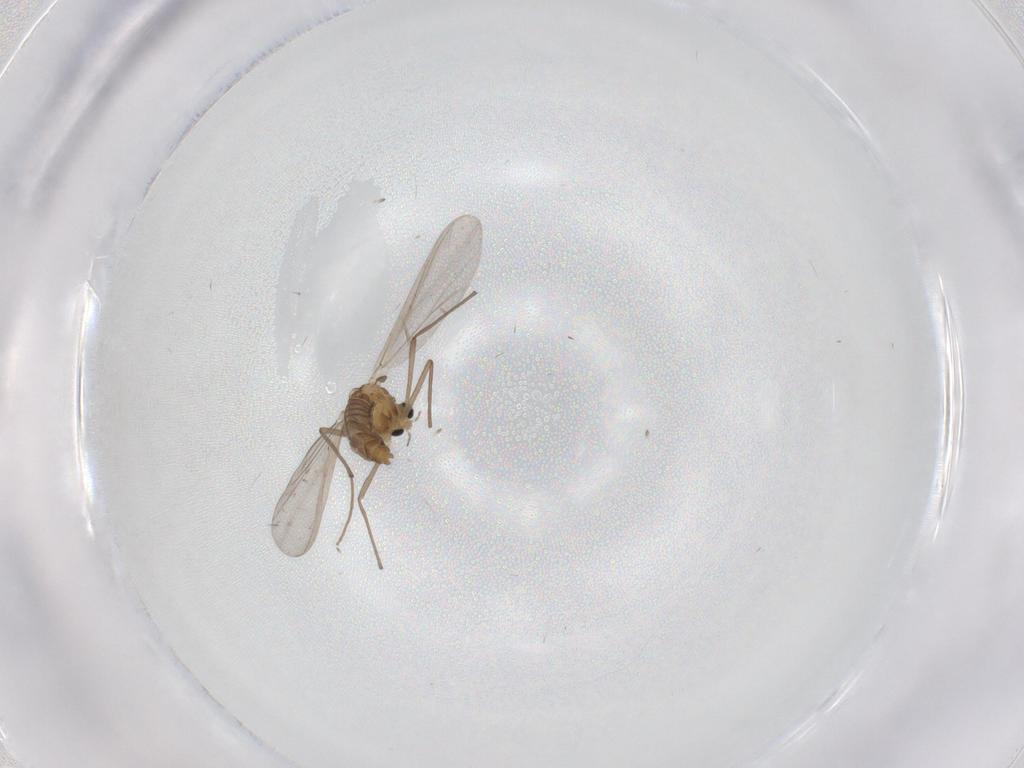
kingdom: Animalia
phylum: Arthropoda
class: Insecta
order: Diptera
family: Chironomidae
